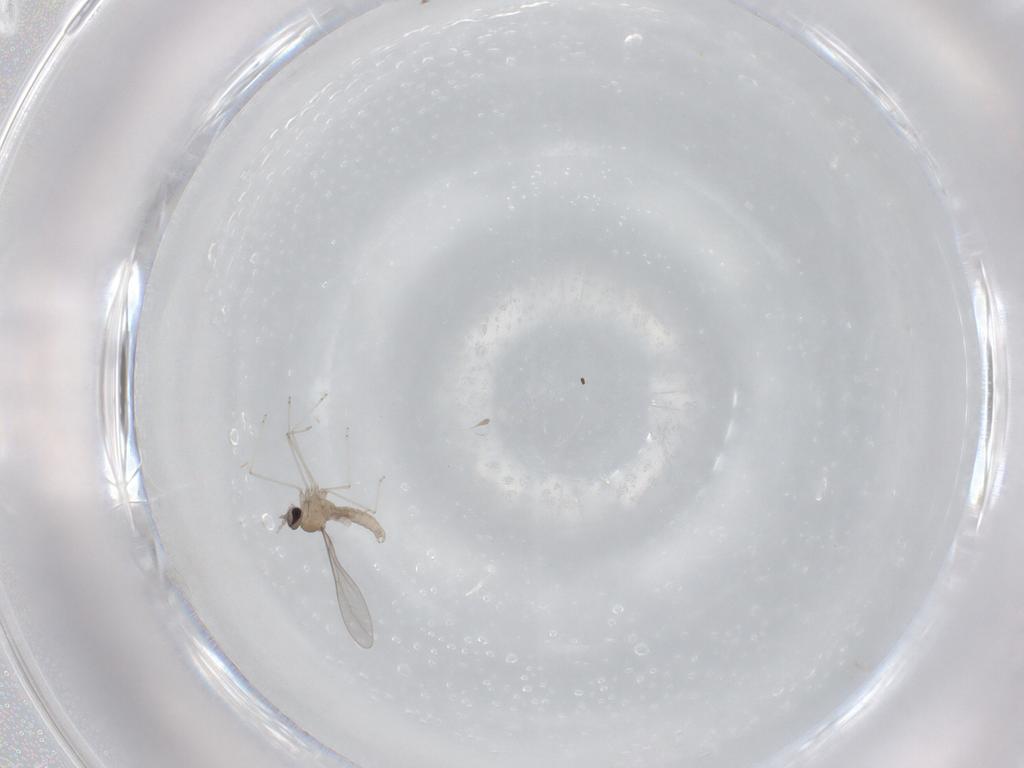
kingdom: Animalia
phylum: Arthropoda
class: Insecta
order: Diptera
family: Cecidomyiidae
